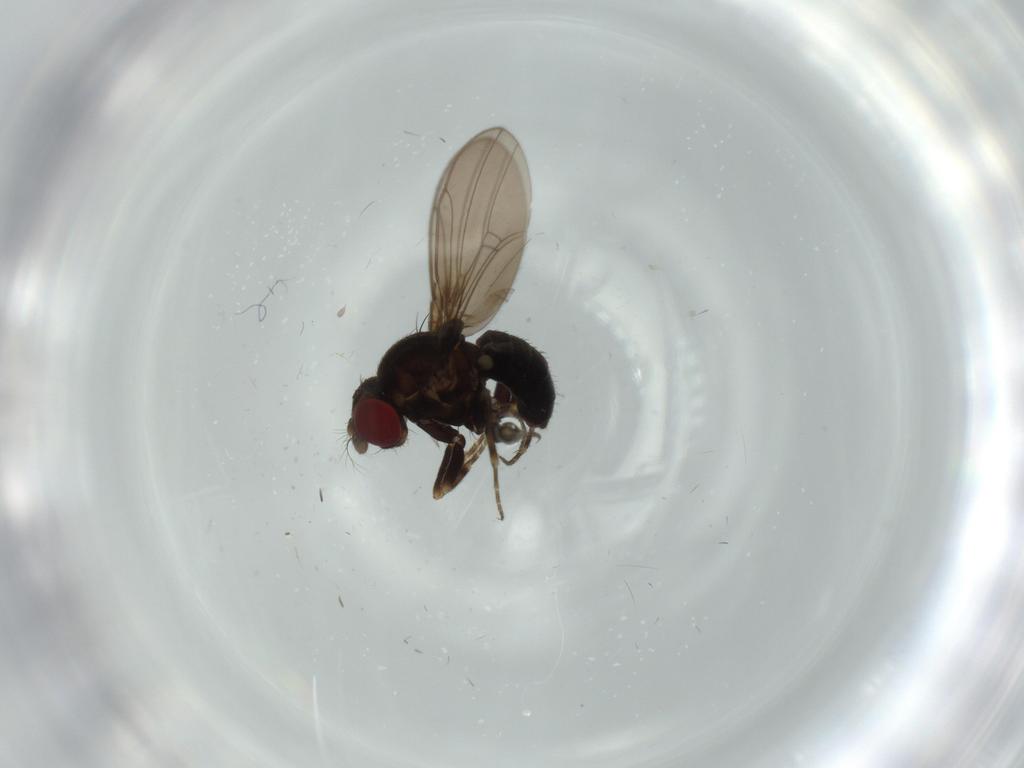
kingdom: Animalia
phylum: Arthropoda
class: Insecta
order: Diptera
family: Ephydridae
